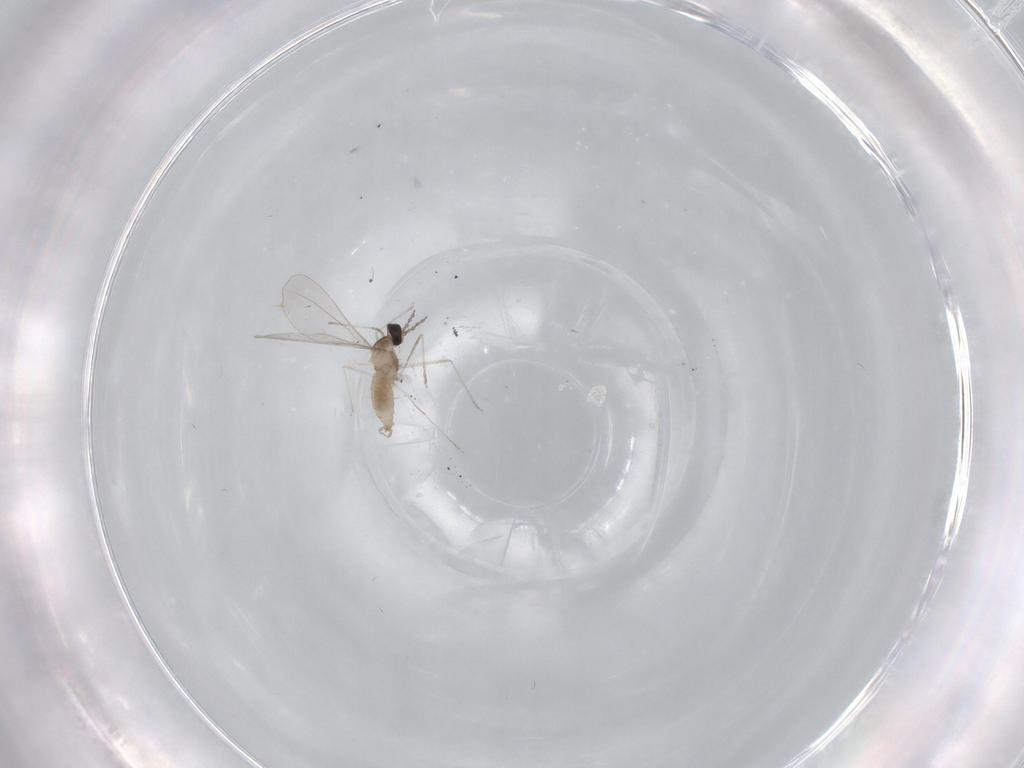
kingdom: Animalia
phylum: Arthropoda
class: Insecta
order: Diptera
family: Cecidomyiidae
